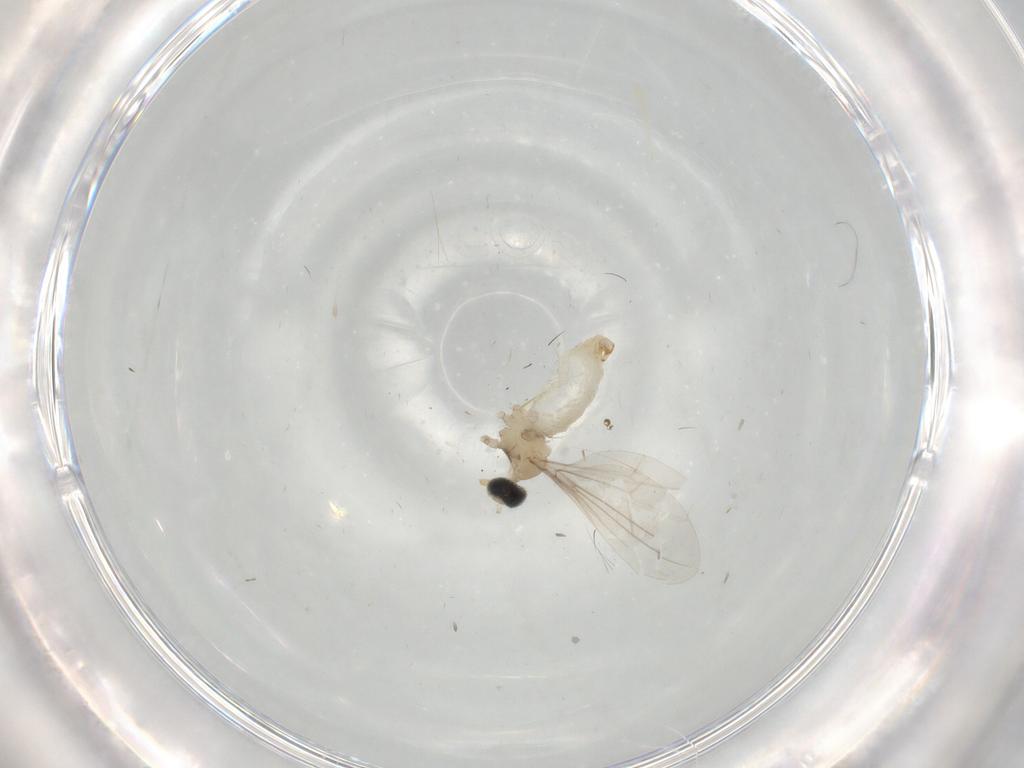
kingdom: Animalia
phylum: Arthropoda
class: Insecta
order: Diptera
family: Cecidomyiidae
